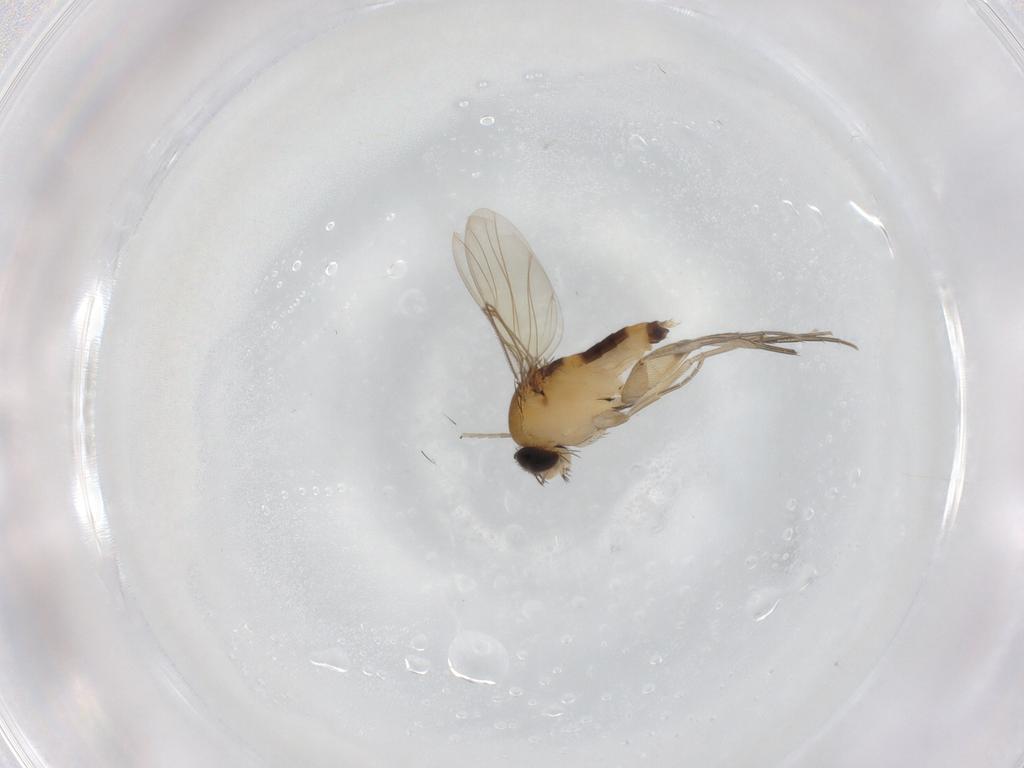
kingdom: Animalia
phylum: Arthropoda
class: Insecta
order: Diptera
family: Phoridae
